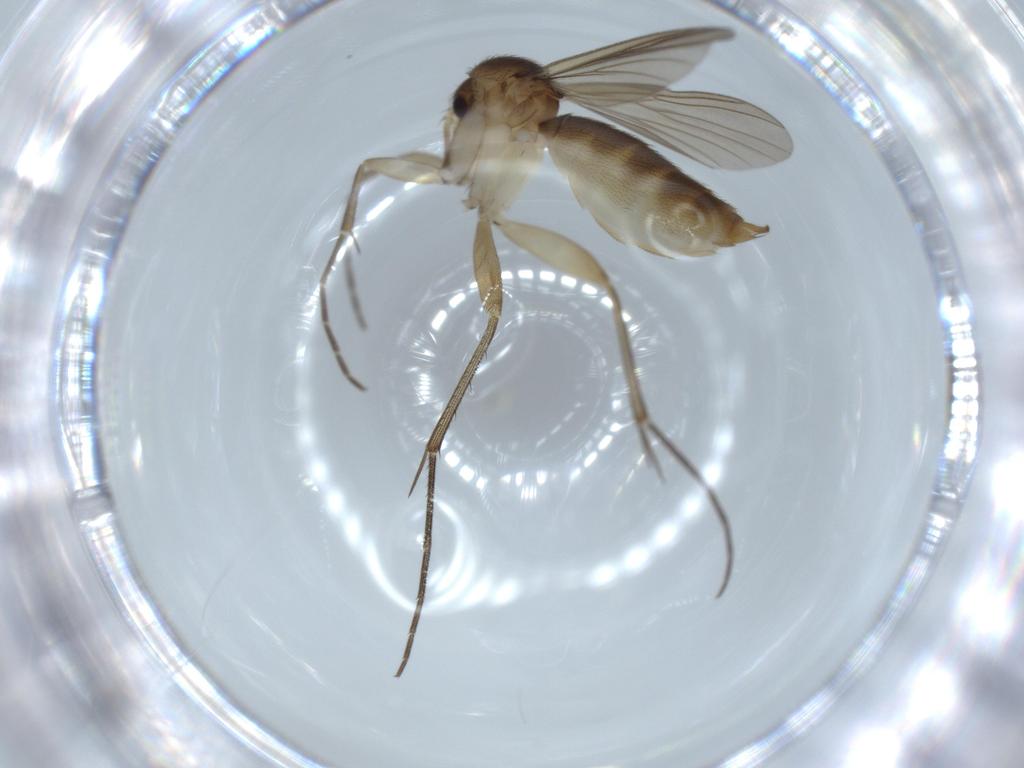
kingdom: Animalia
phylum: Arthropoda
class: Insecta
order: Diptera
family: Mycetophilidae
